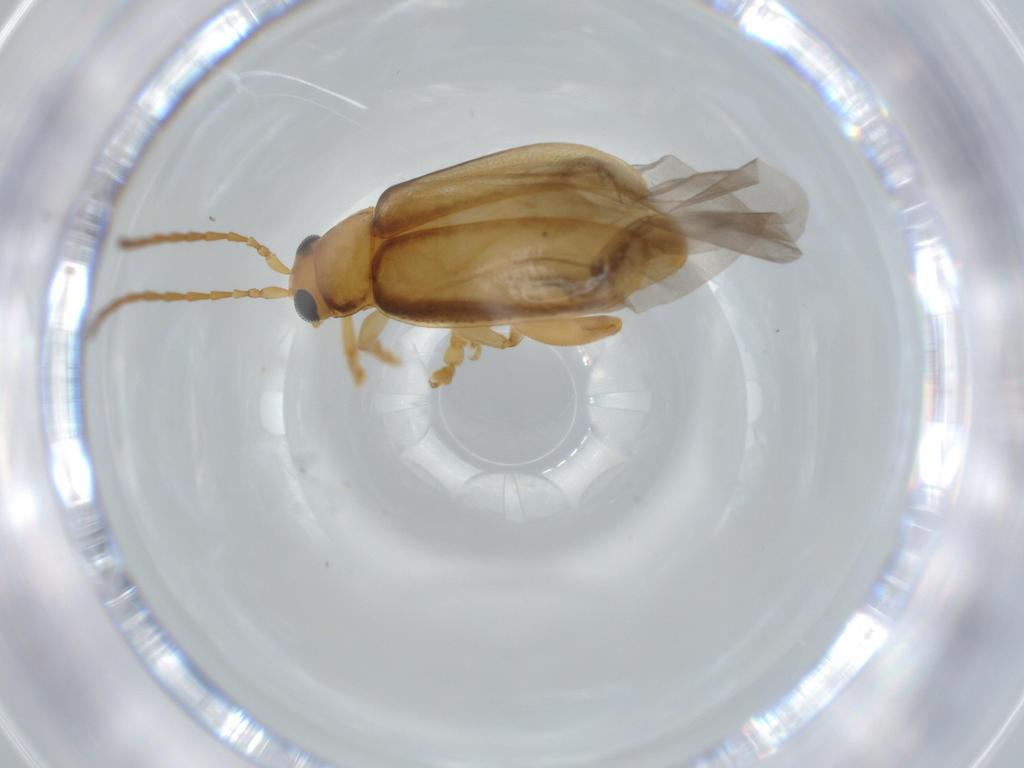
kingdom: Animalia
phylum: Arthropoda
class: Insecta
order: Coleoptera
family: Chrysomelidae
